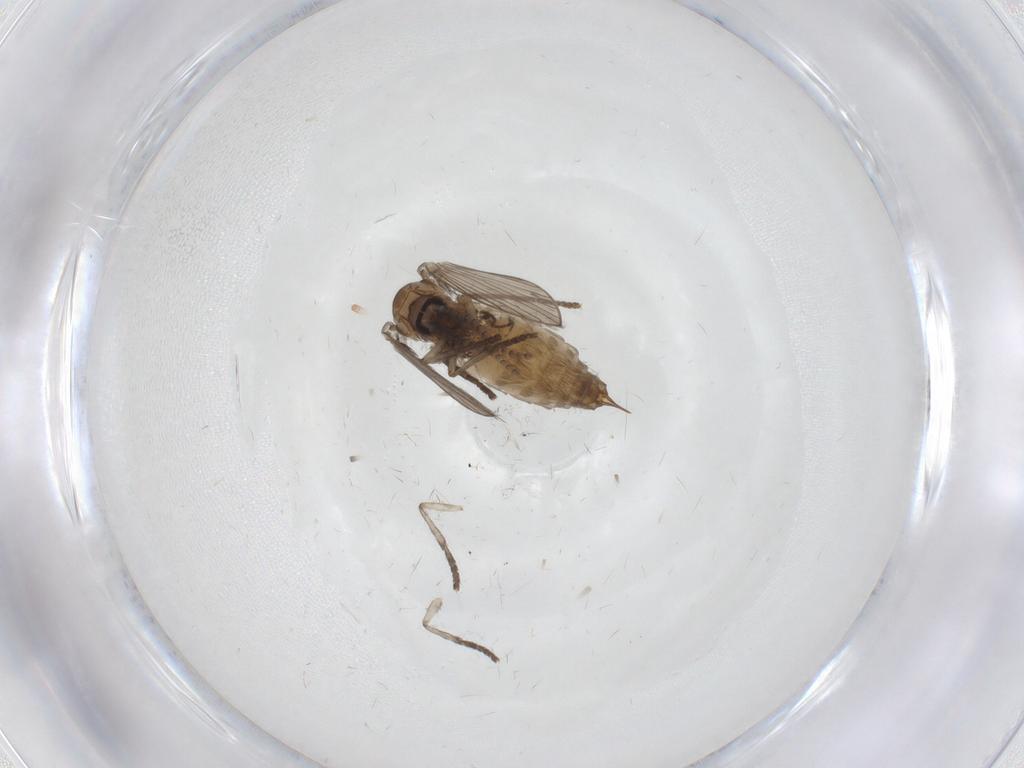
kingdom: Animalia
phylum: Arthropoda
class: Insecta
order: Diptera
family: Psychodidae
